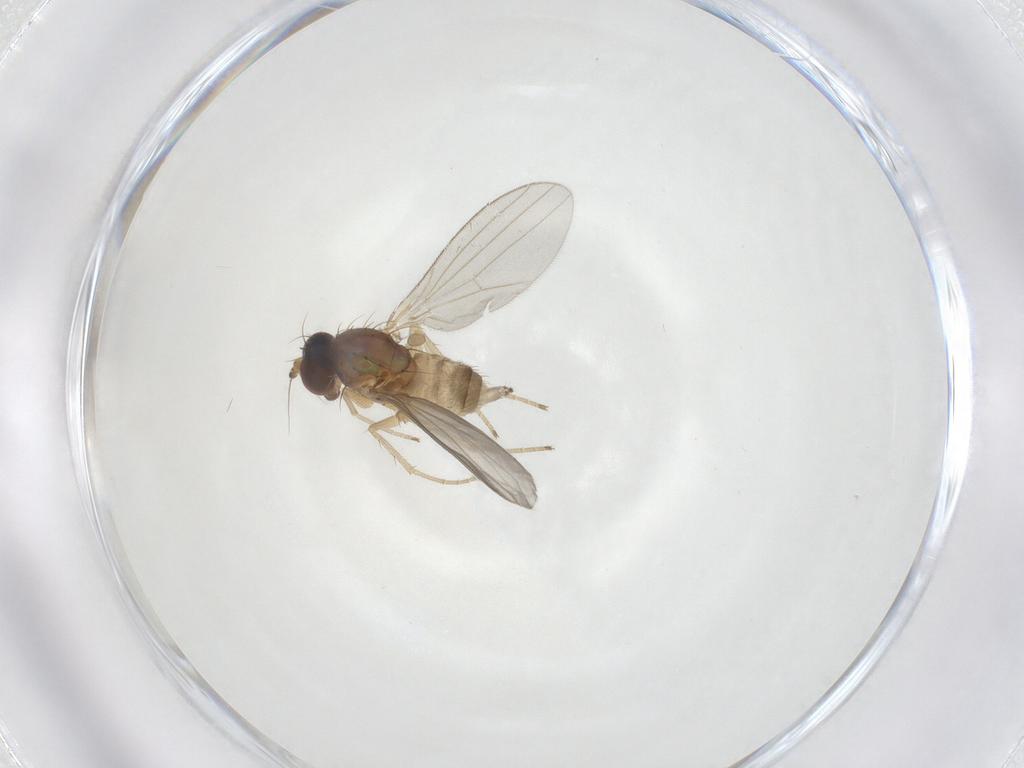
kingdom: Animalia
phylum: Arthropoda
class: Insecta
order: Diptera
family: Dolichopodidae
